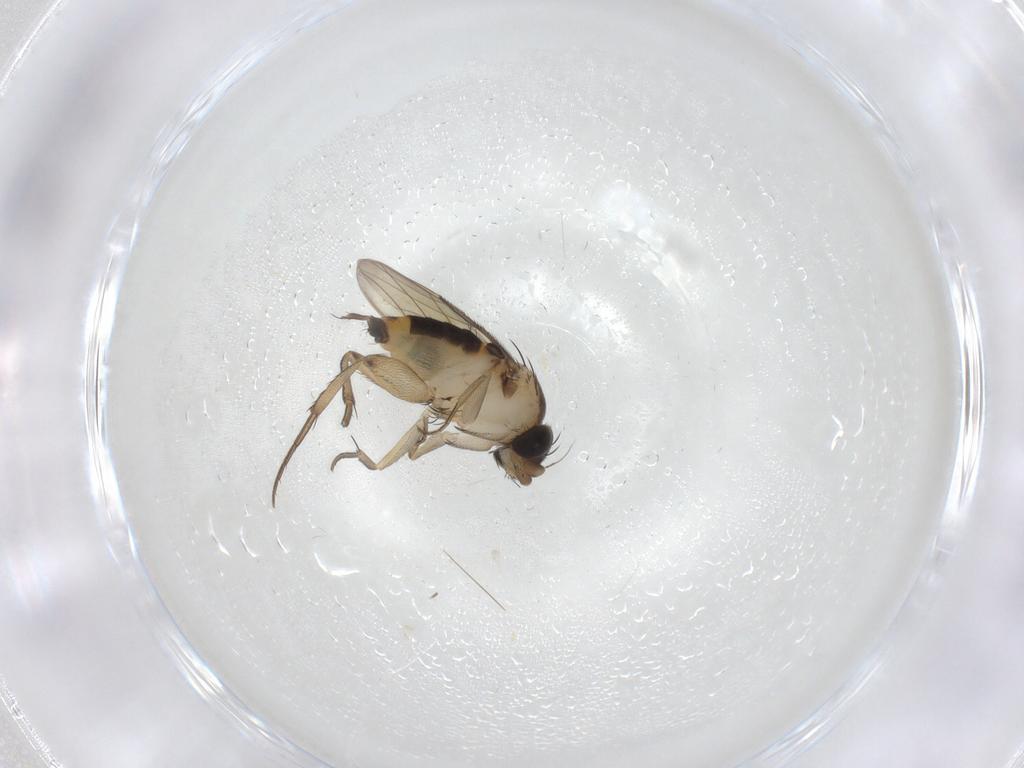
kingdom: Animalia
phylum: Arthropoda
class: Insecta
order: Diptera
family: Phoridae
